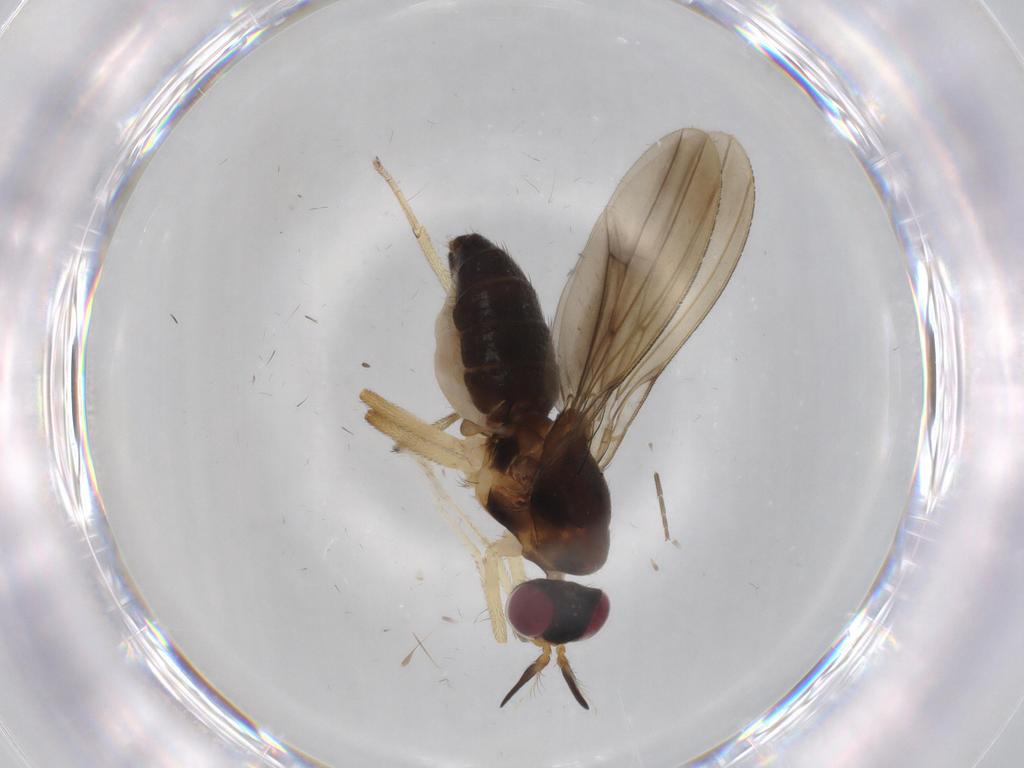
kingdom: Animalia
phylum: Arthropoda
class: Insecta
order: Diptera
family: Lauxaniidae
